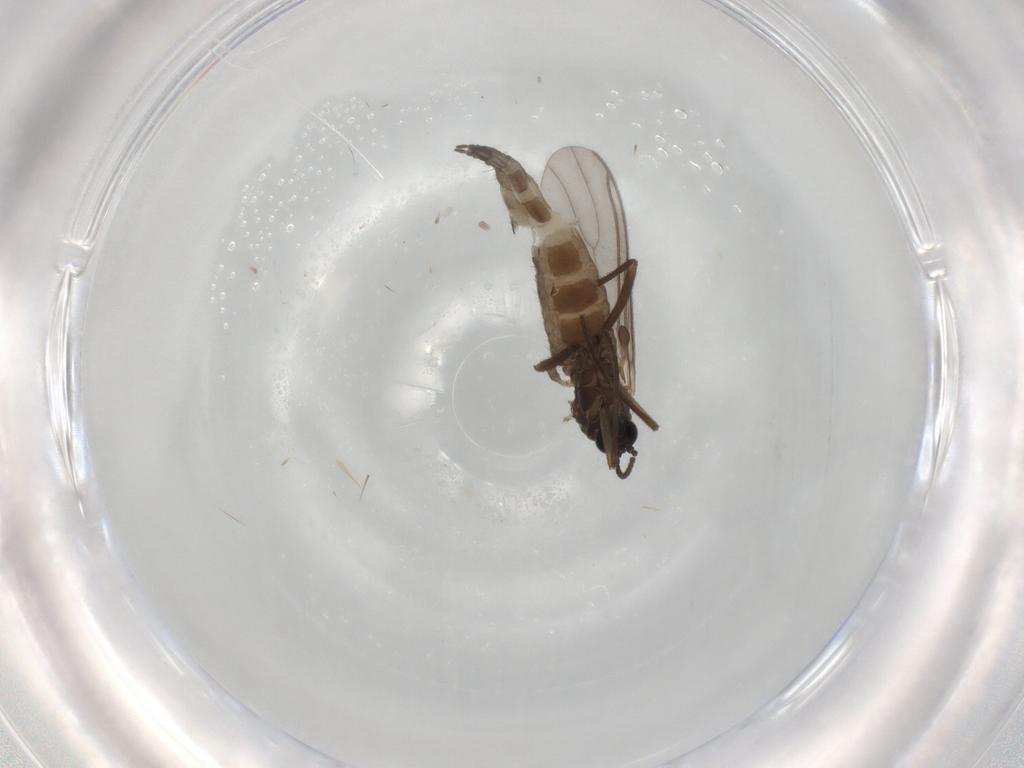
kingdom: Animalia
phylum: Arthropoda
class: Insecta
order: Diptera
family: Sciaridae
